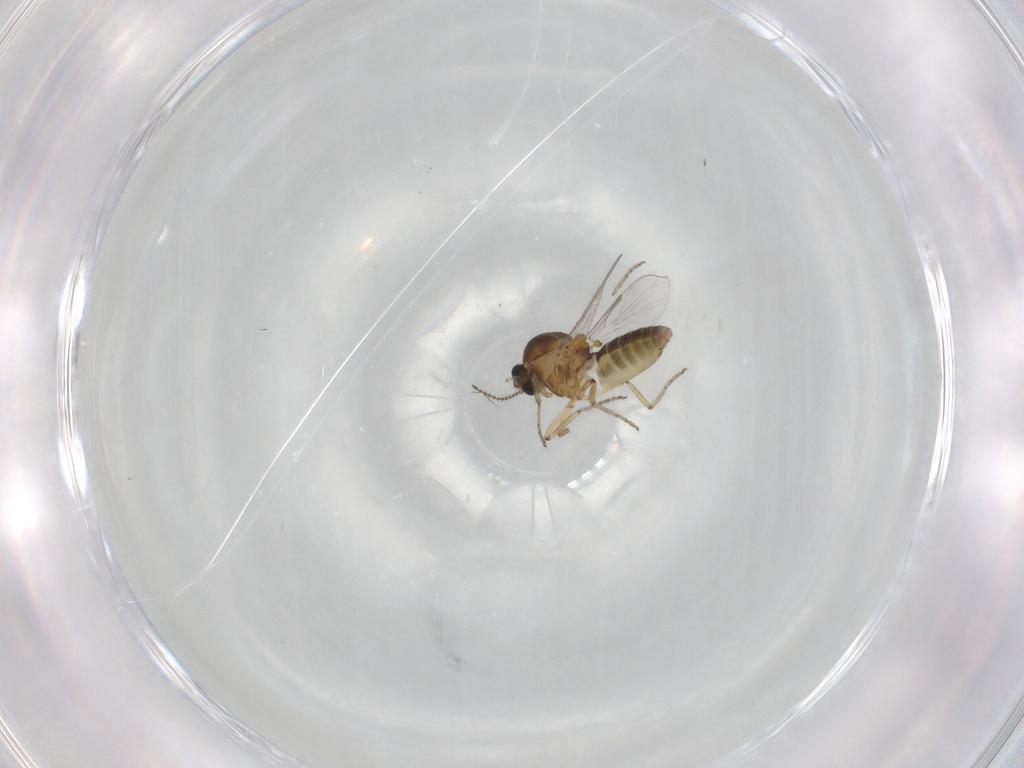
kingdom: Animalia
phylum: Arthropoda
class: Insecta
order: Diptera
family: Ceratopogonidae
